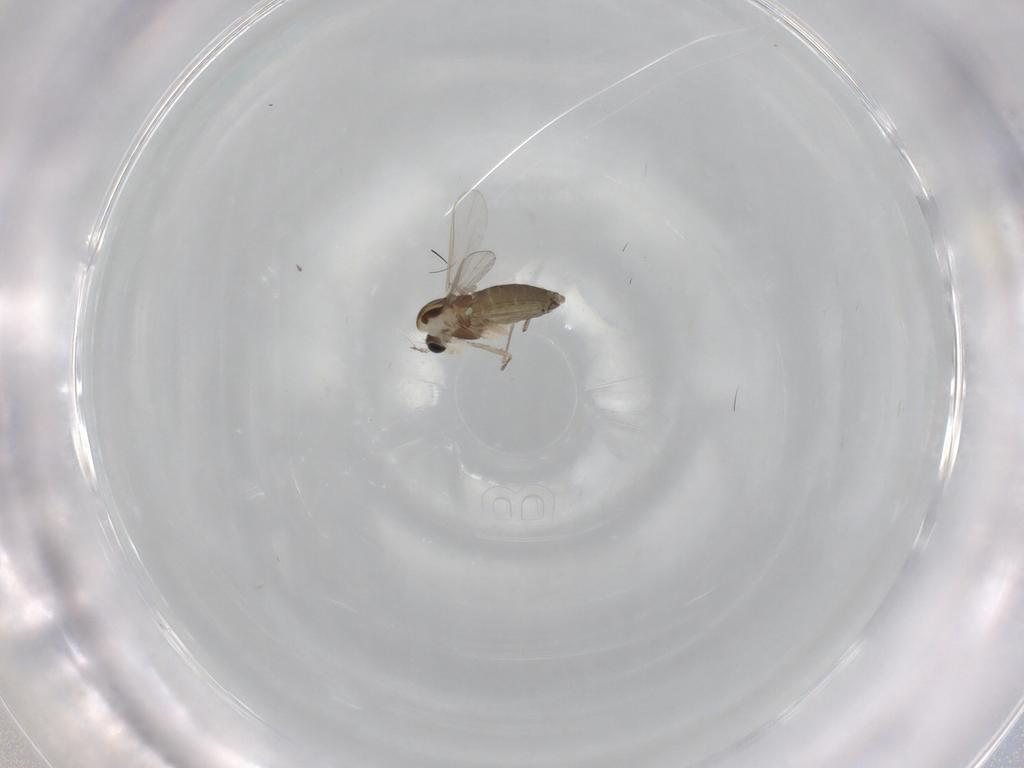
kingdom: Animalia
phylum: Arthropoda
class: Insecta
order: Diptera
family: Chironomidae
